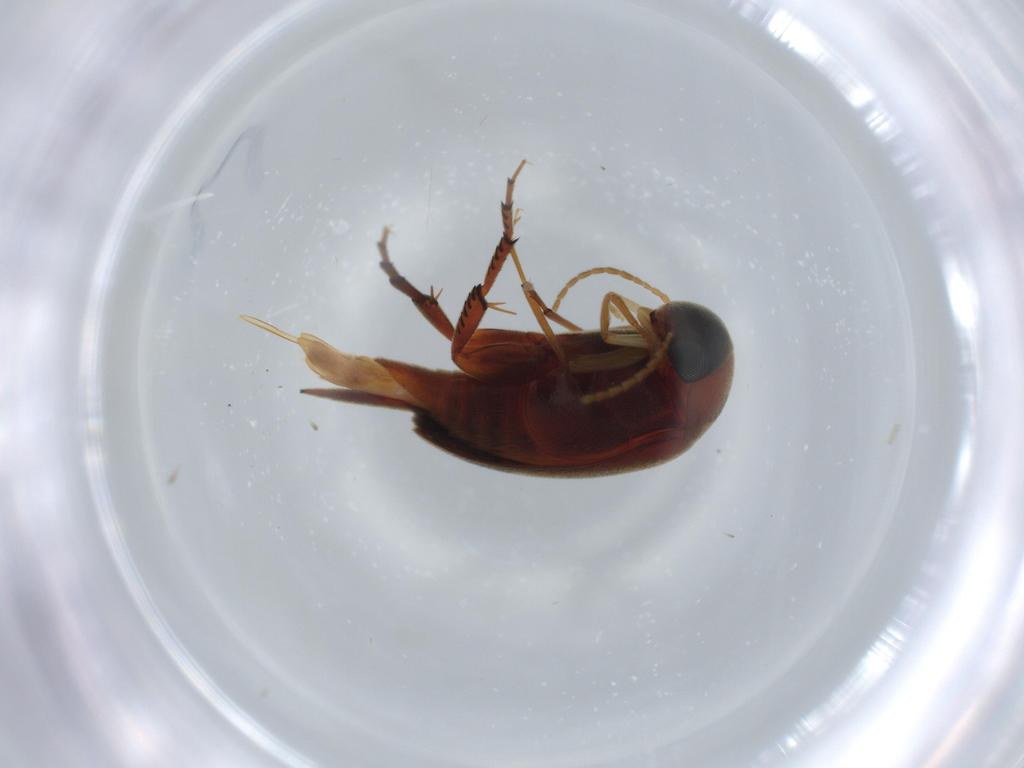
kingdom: Animalia
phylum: Arthropoda
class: Insecta
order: Coleoptera
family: Mordellidae
